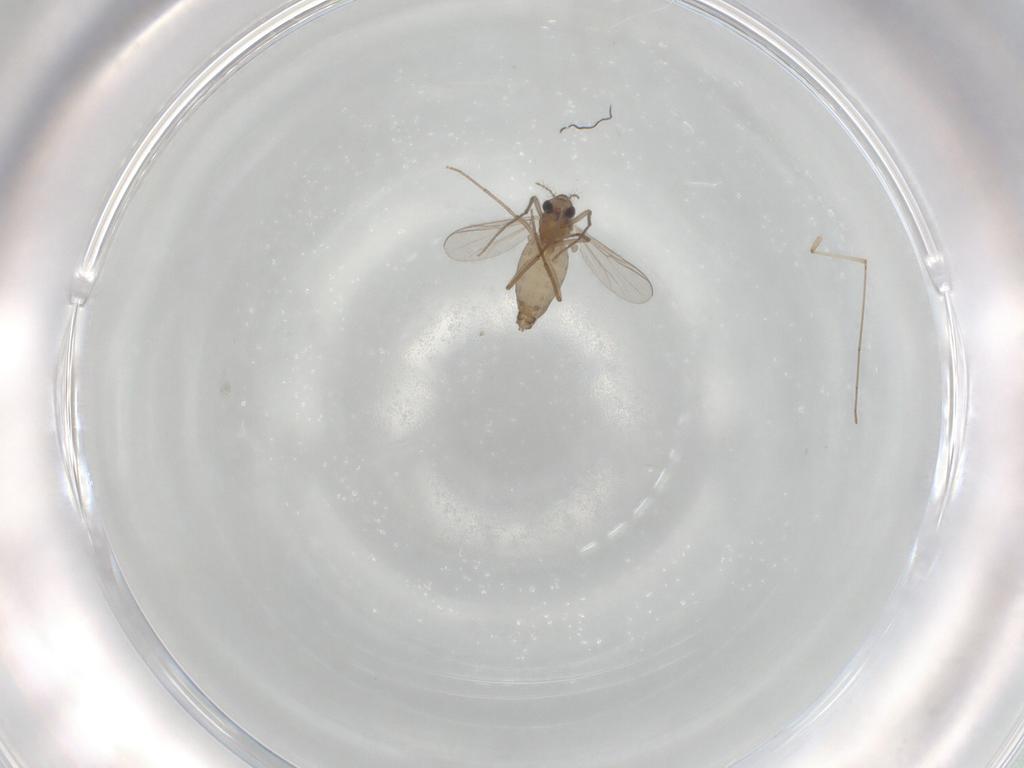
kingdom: Animalia
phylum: Arthropoda
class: Insecta
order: Diptera
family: Chironomidae
